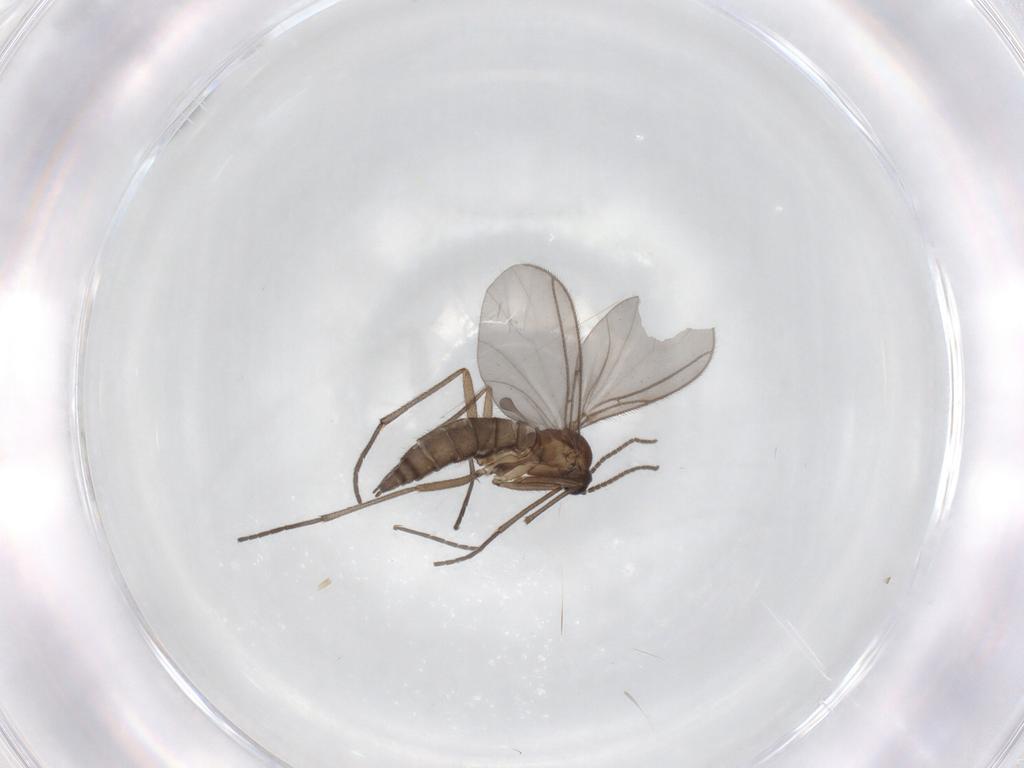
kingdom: Animalia
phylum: Arthropoda
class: Insecta
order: Diptera
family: Sciaridae
